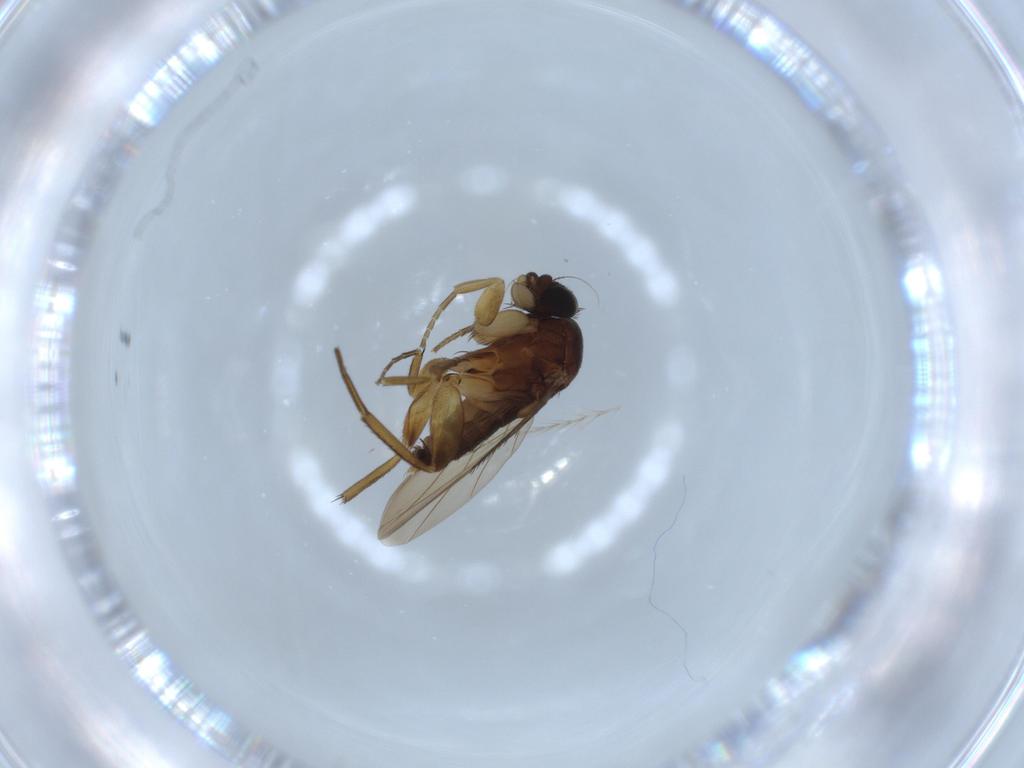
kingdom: Animalia
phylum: Arthropoda
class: Insecta
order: Diptera
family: Phoridae
